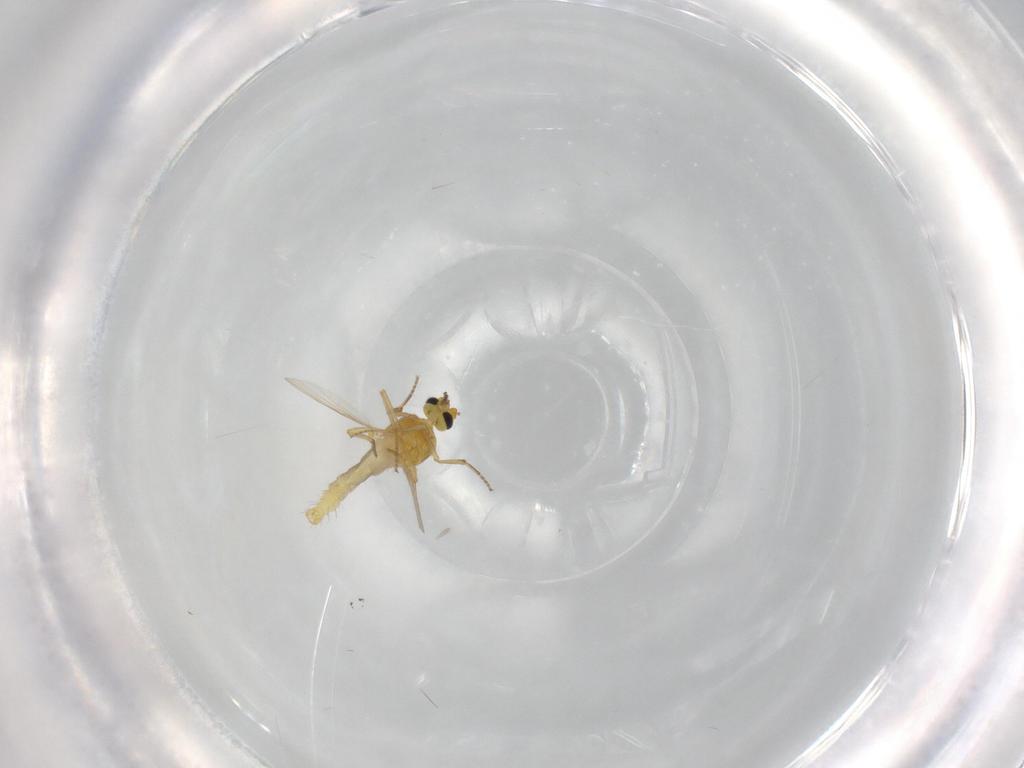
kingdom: Animalia
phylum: Arthropoda
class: Insecta
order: Diptera
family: Ceratopogonidae
